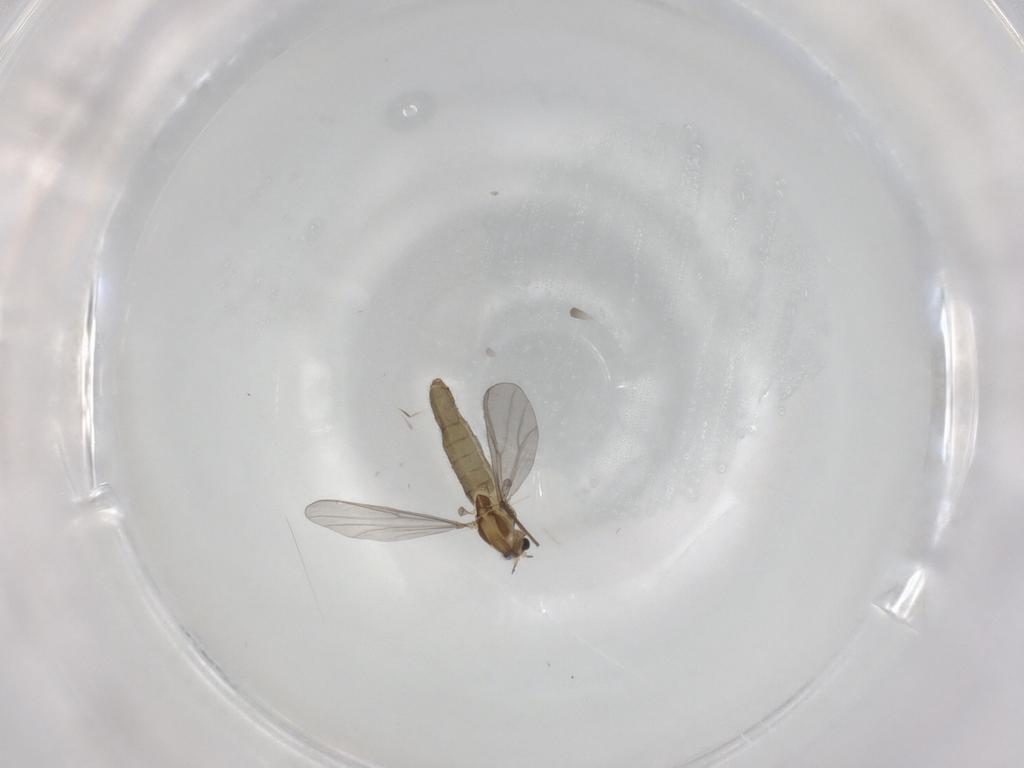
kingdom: Animalia
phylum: Arthropoda
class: Insecta
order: Diptera
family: Chironomidae
